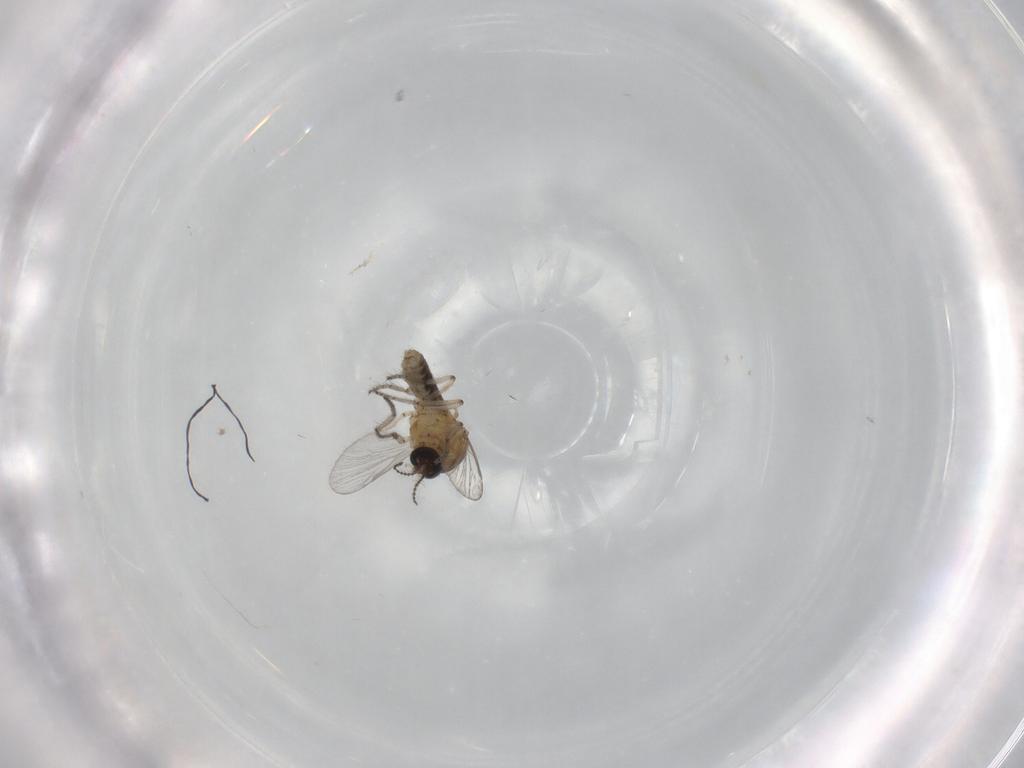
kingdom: Animalia
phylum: Arthropoda
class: Insecta
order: Diptera
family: Ceratopogonidae
